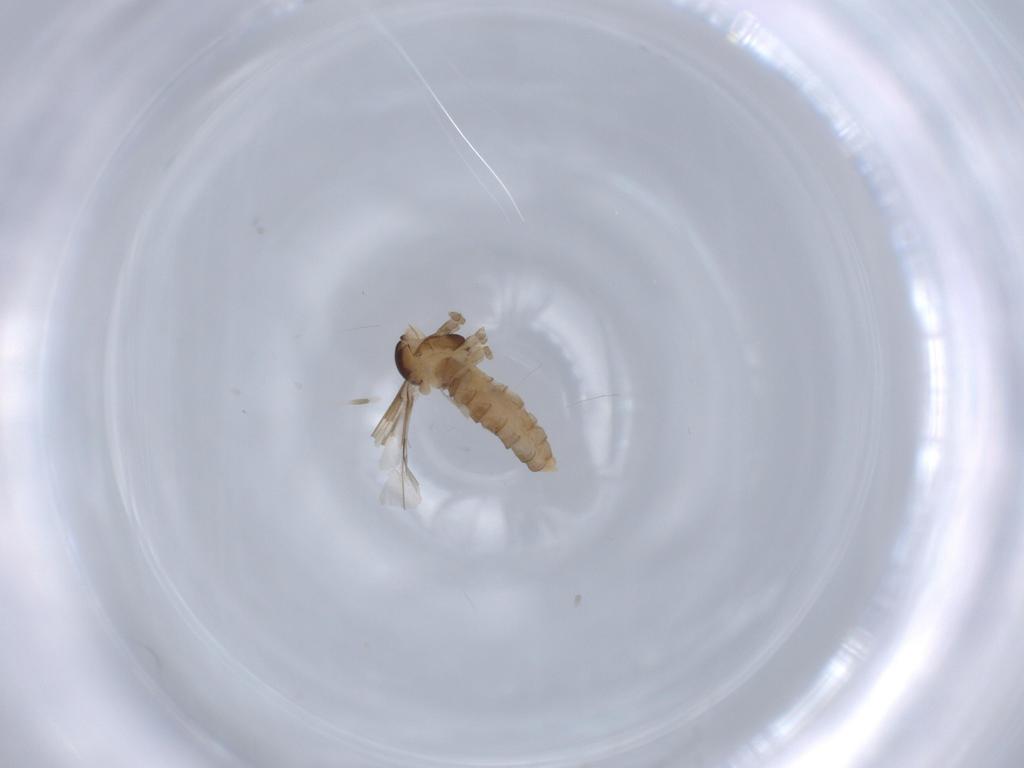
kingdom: Animalia
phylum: Arthropoda
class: Insecta
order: Diptera
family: Cecidomyiidae
